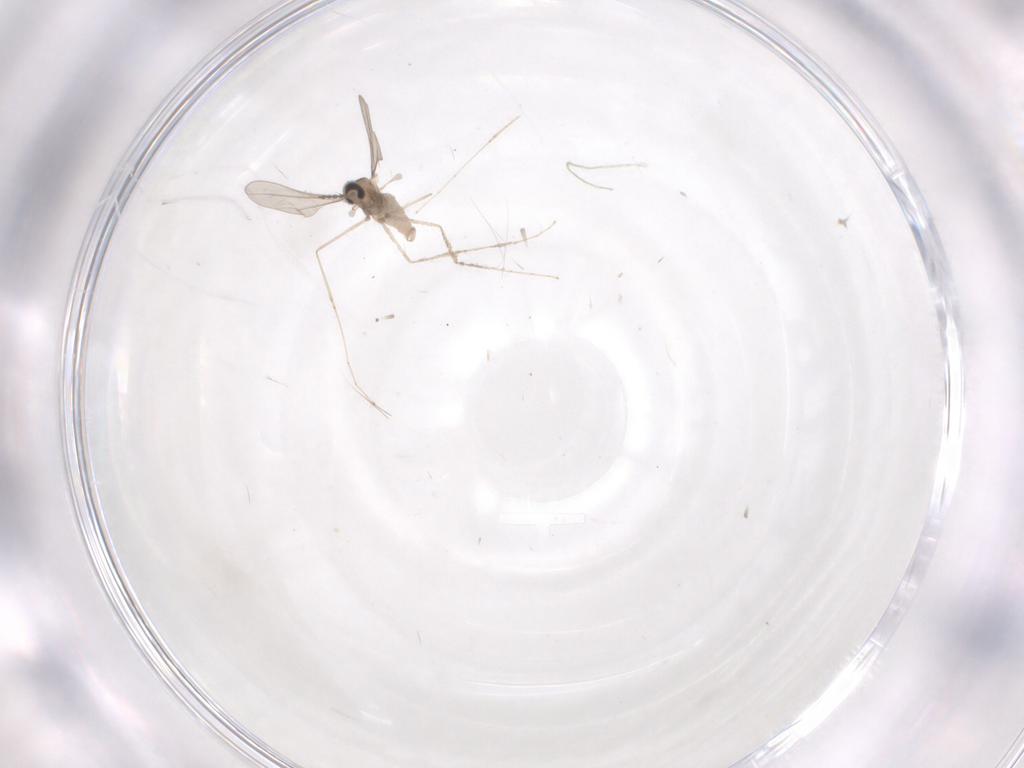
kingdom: Animalia
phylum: Arthropoda
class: Insecta
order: Diptera
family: Cecidomyiidae
